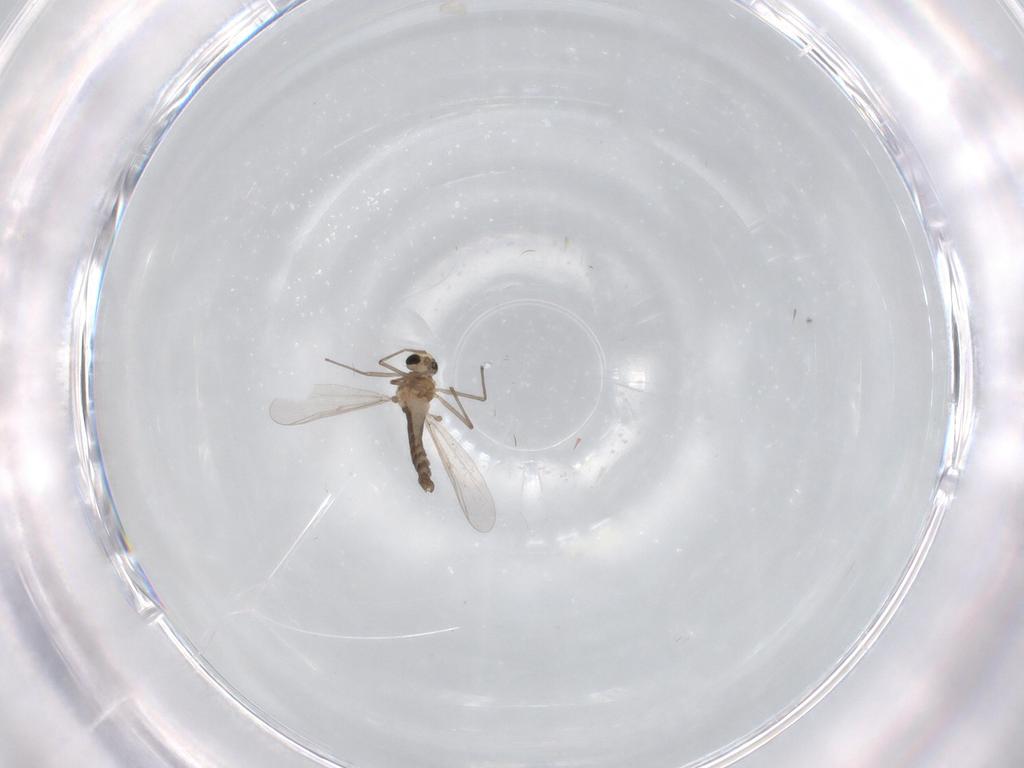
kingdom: Animalia
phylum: Arthropoda
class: Insecta
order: Diptera
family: Chironomidae
